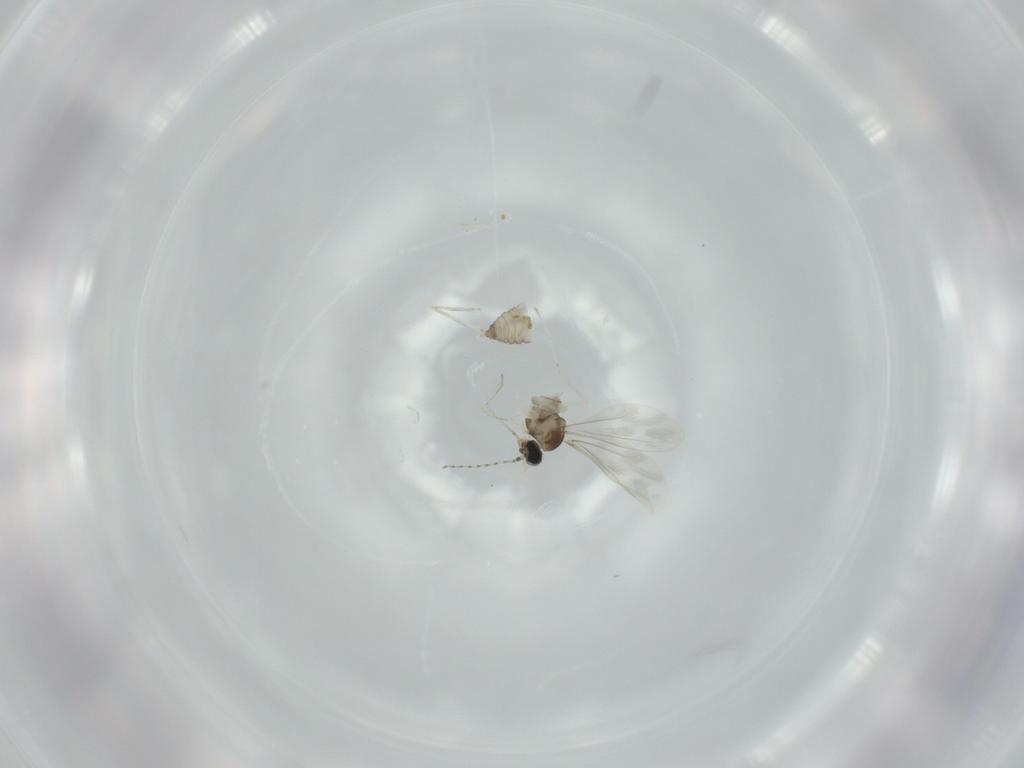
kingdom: Animalia
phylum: Arthropoda
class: Insecta
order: Diptera
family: Cecidomyiidae
